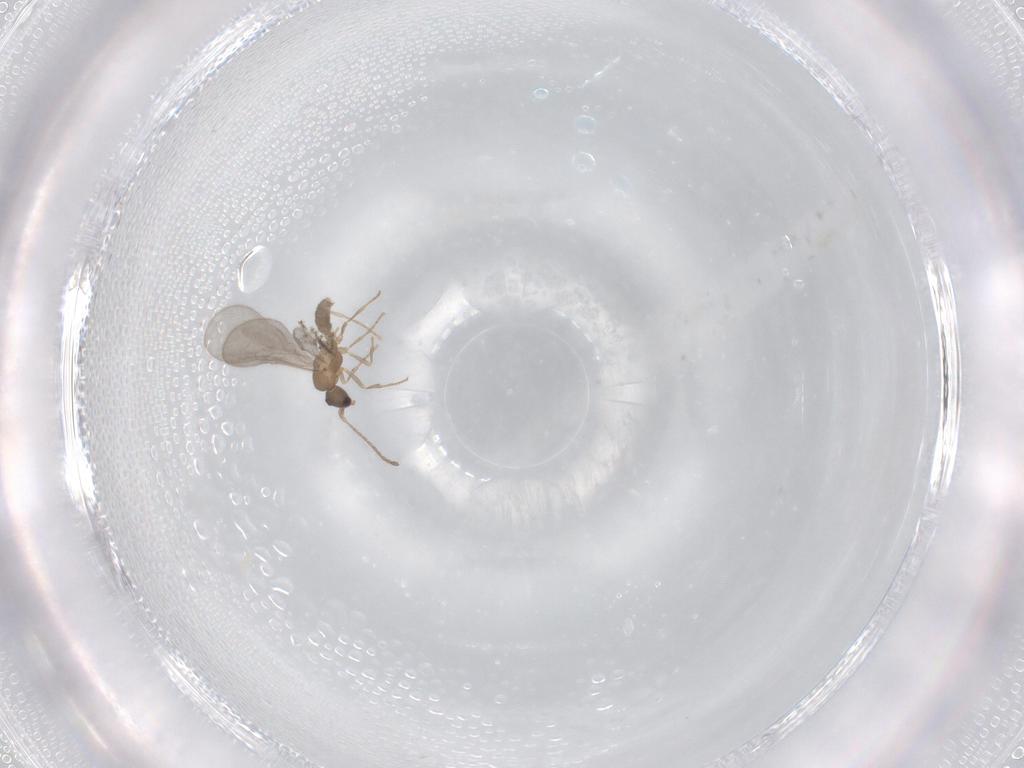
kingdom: Animalia
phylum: Arthropoda
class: Insecta
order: Hymenoptera
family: Formicidae
